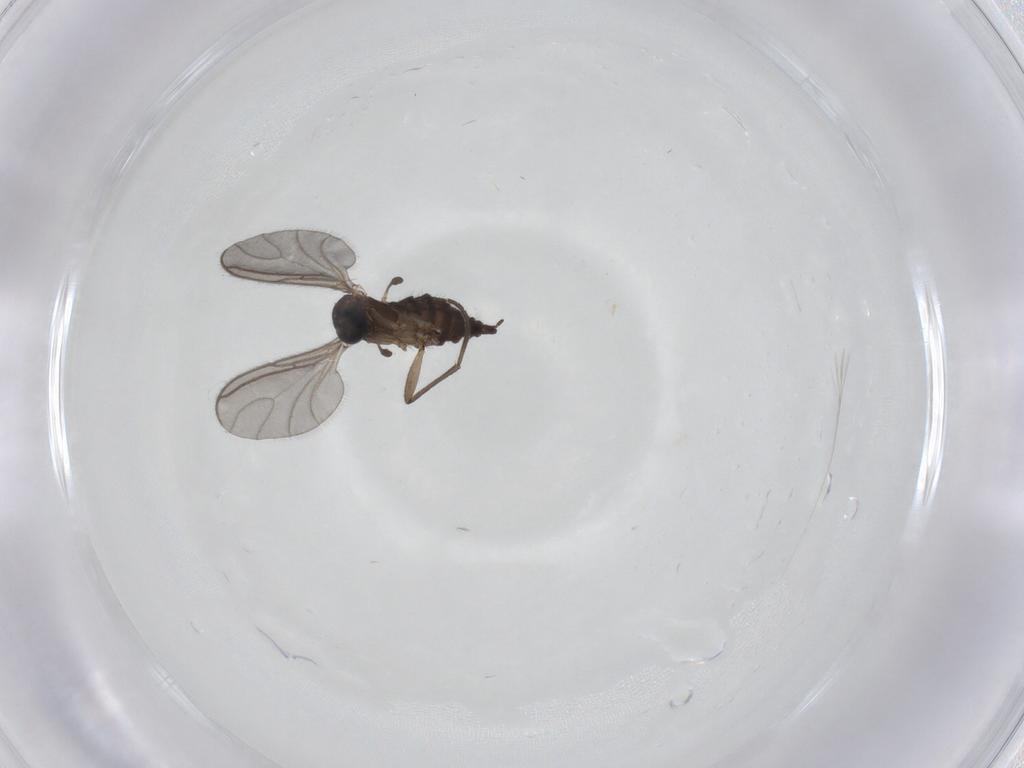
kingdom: Animalia
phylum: Arthropoda
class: Insecta
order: Diptera
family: Sciaridae
